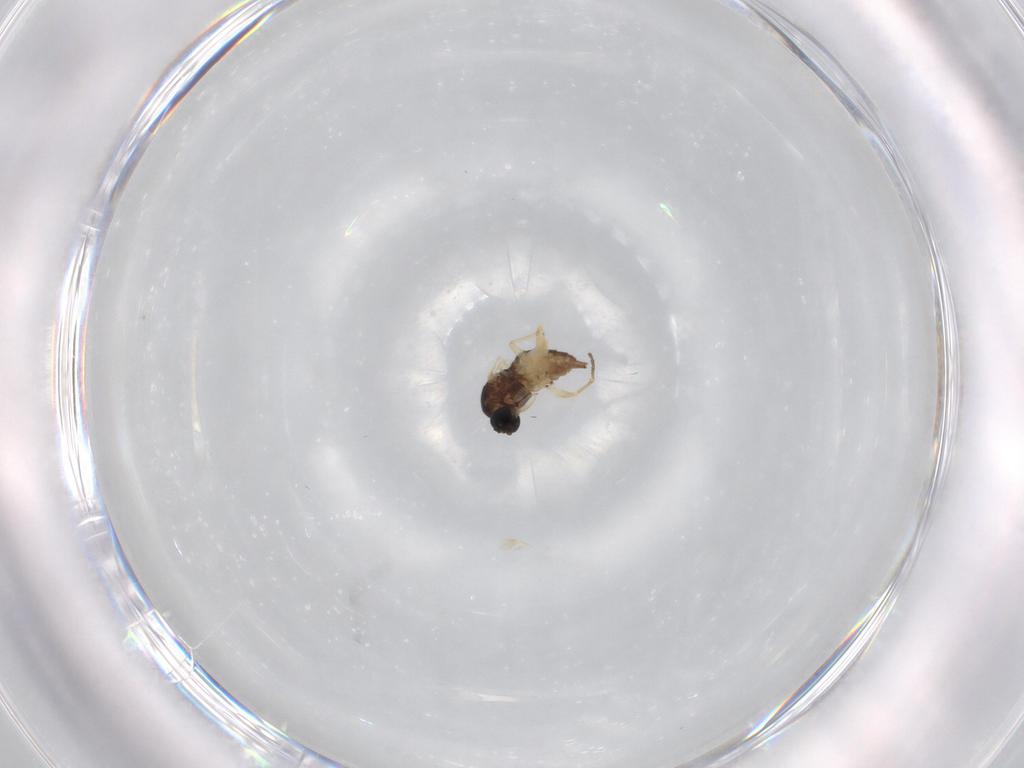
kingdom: Animalia
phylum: Arthropoda
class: Insecta
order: Diptera
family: Sciaridae
